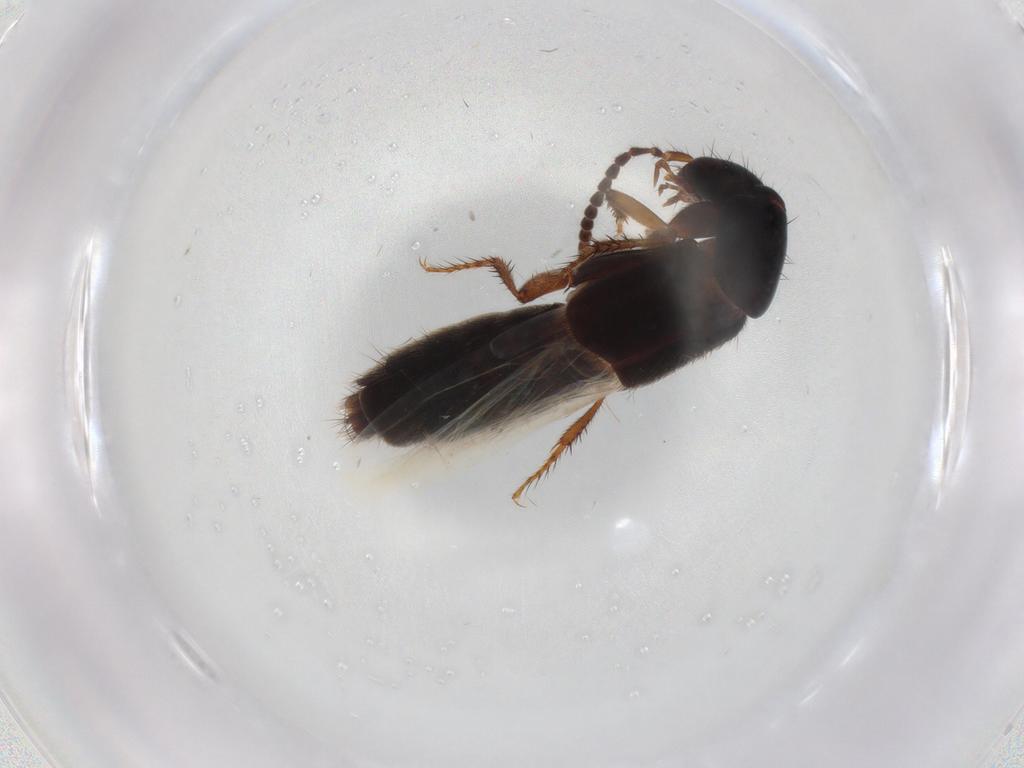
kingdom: Animalia
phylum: Arthropoda
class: Insecta
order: Coleoptera
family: Staphylinidae
